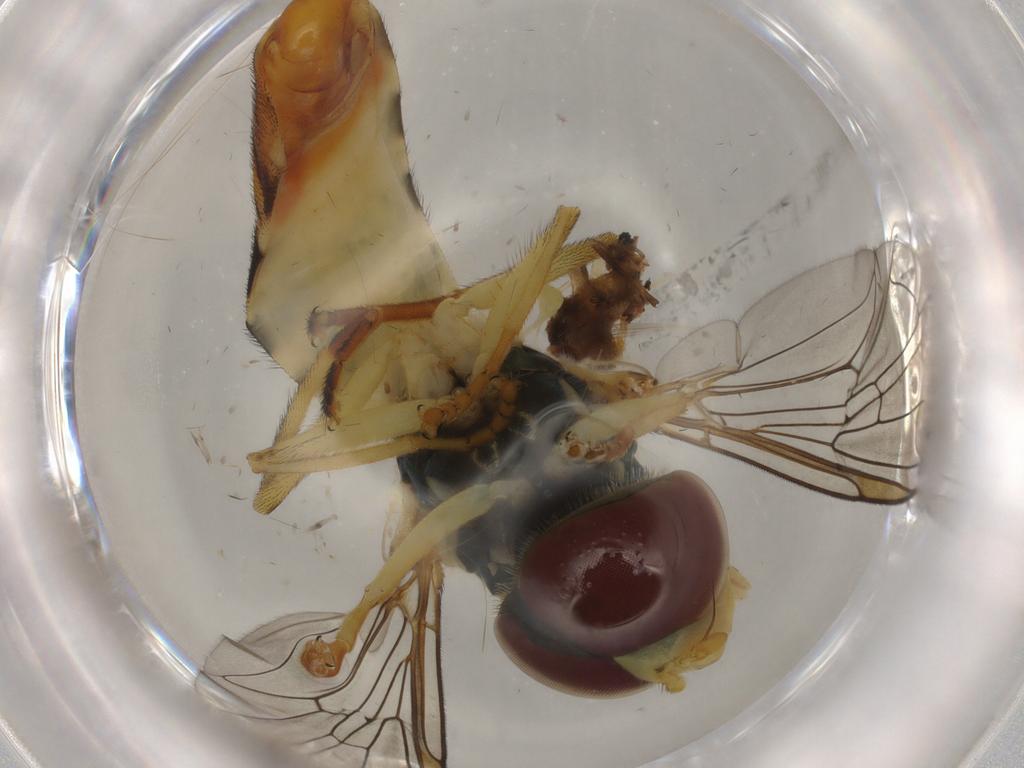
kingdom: Animalia
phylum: Arthropoda
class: Insecta
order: Diptera
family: Syrphidae
